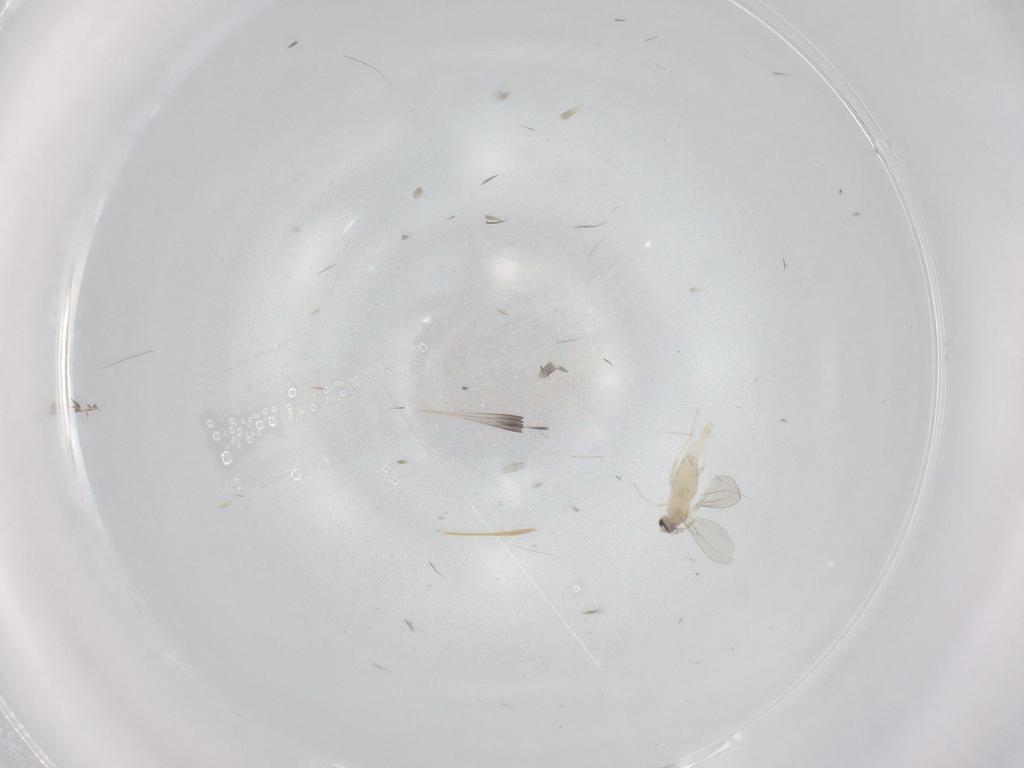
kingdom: Animalia
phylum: Arthropoda
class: Insecta
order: Diptera
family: Cecidomyiidae
